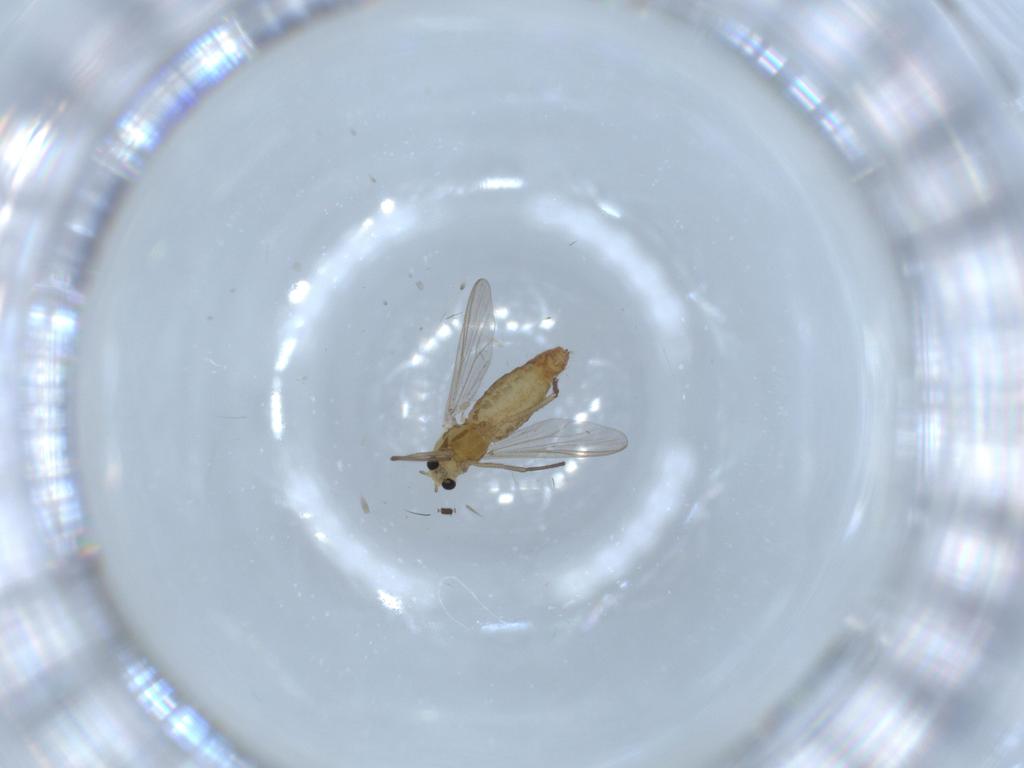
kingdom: Animalia
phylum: Arthropoda
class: Insecta
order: Diptera
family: Chironomidae
